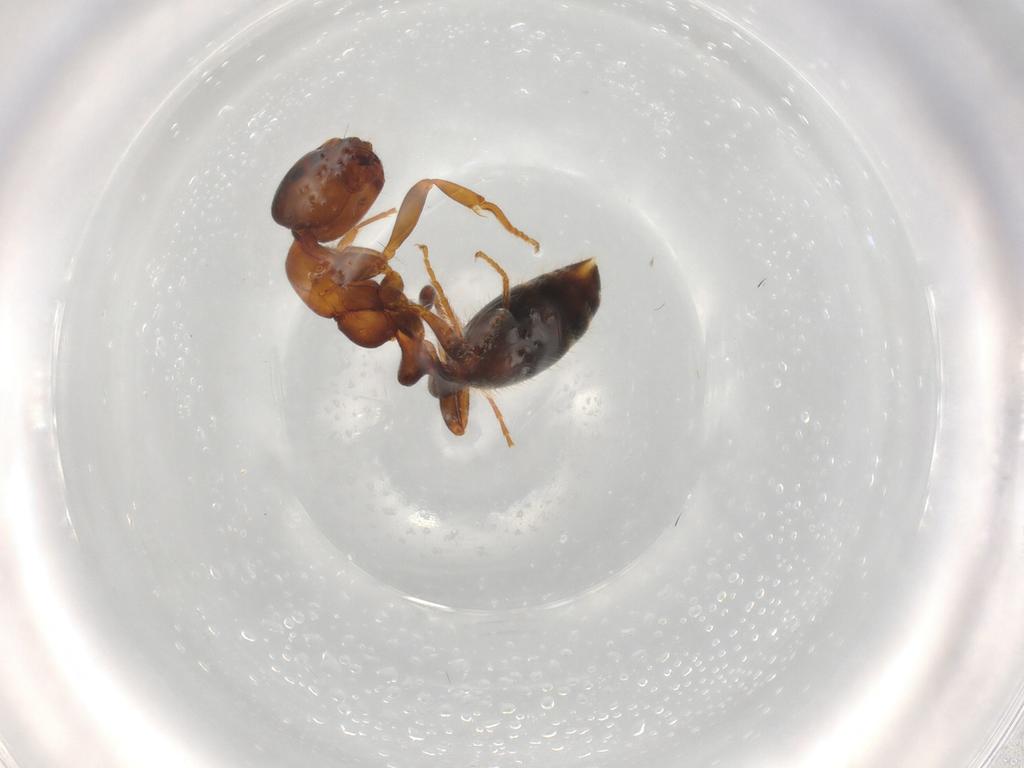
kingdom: Animalia
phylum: Arthropoda
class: Insecta
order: Hymenoptera
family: Formicidae
